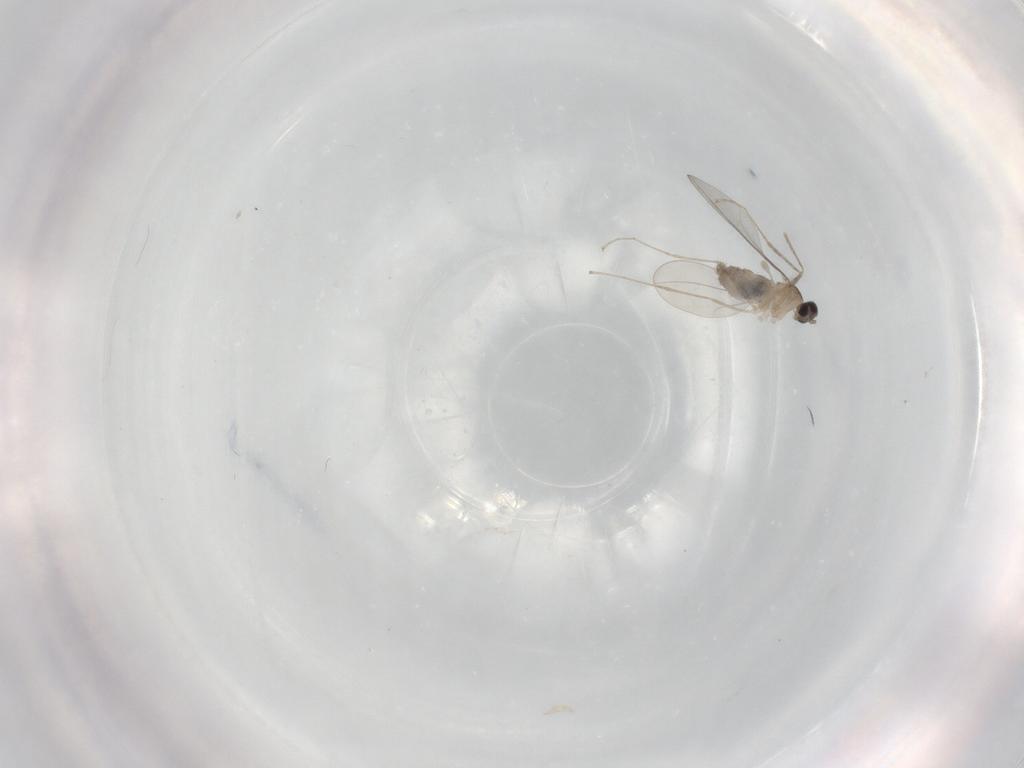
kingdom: Animalia
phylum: Arthropoda
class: Insecta
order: Diptera
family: Cecidomyiidae
